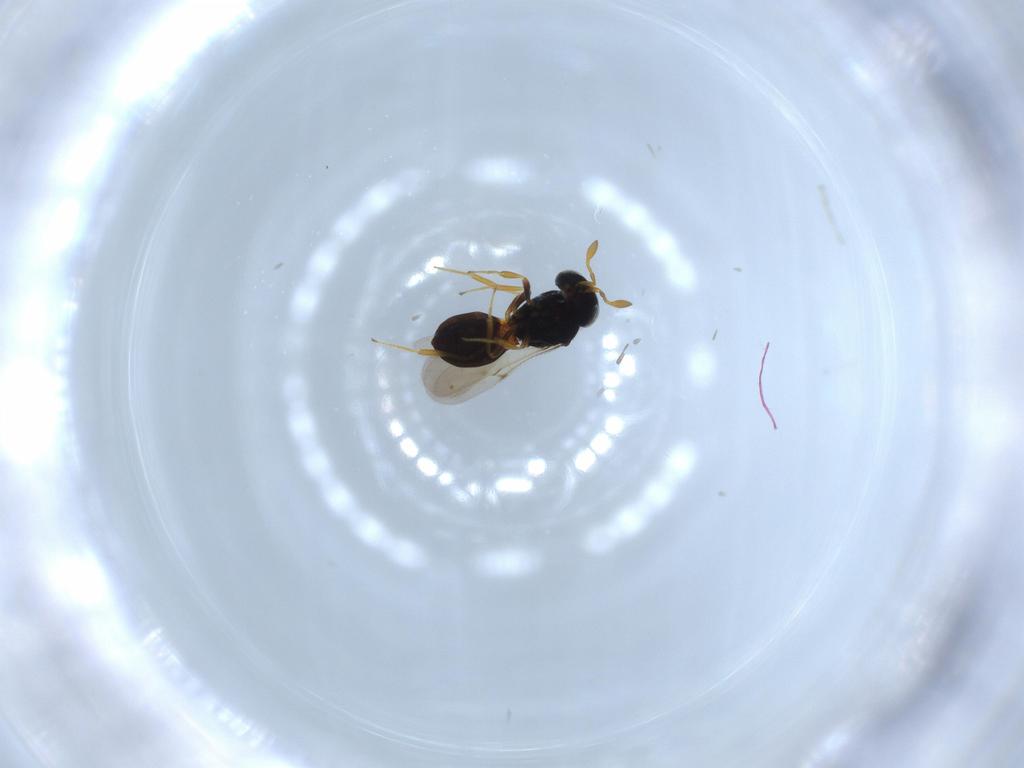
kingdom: Animalia
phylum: Arthropoda
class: Insecta
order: Hymenoptera
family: Scelionidae
